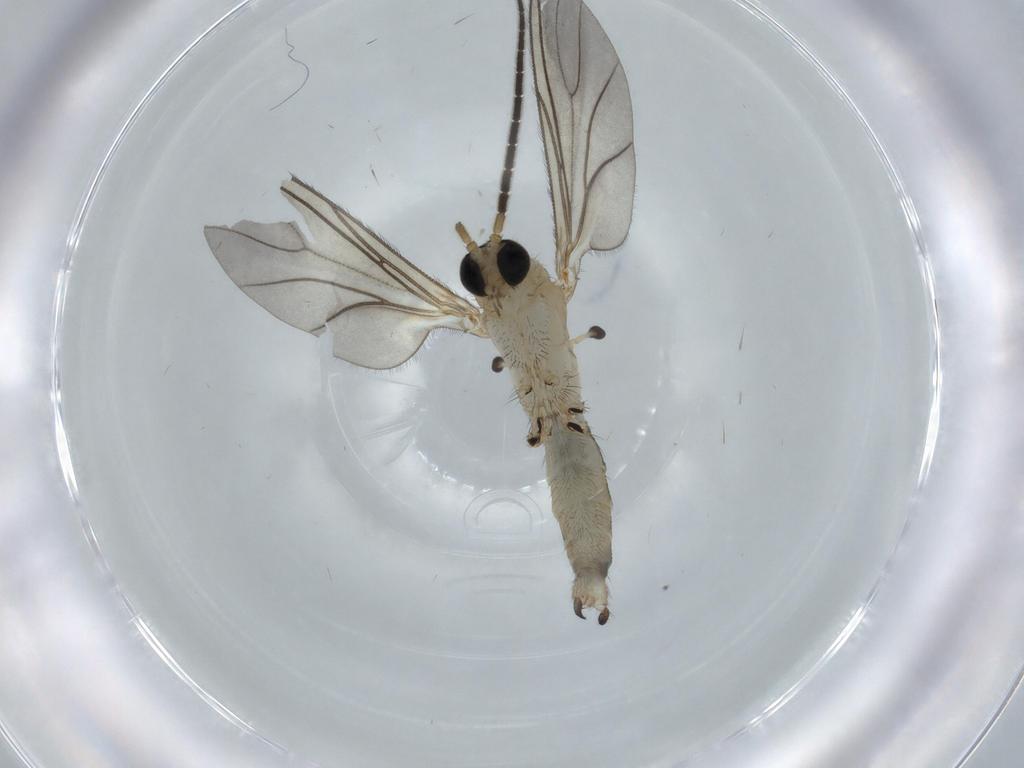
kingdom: Animalia
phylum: Arthropoda
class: Insecta
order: Diptera
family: Sciaridae
